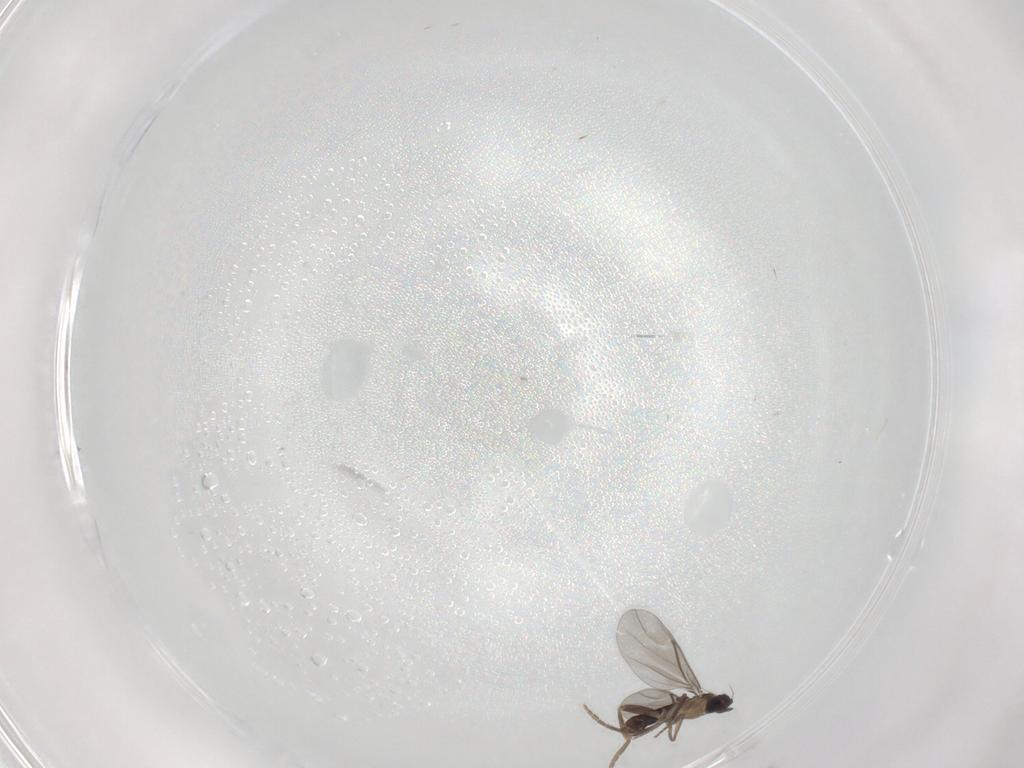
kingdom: Animalia
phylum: Arthropoda
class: Insecta
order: Diptera
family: Sciaridae
